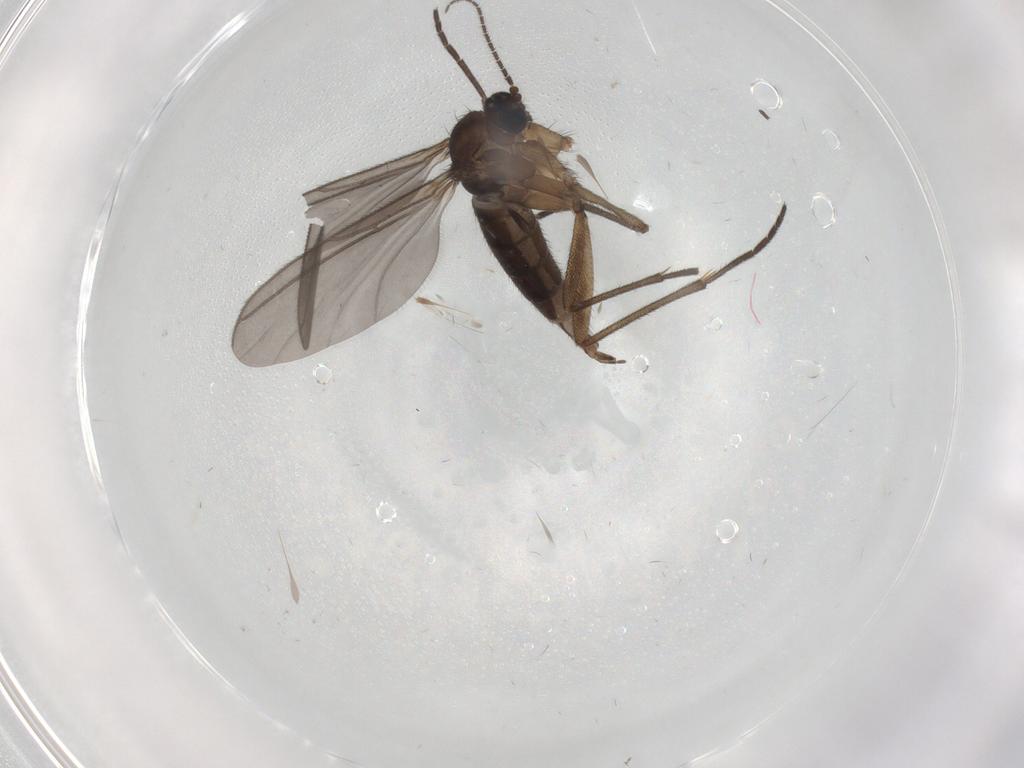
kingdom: Animalia
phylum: Arthropoda
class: Insecta
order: Diptera
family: Sciaridae
